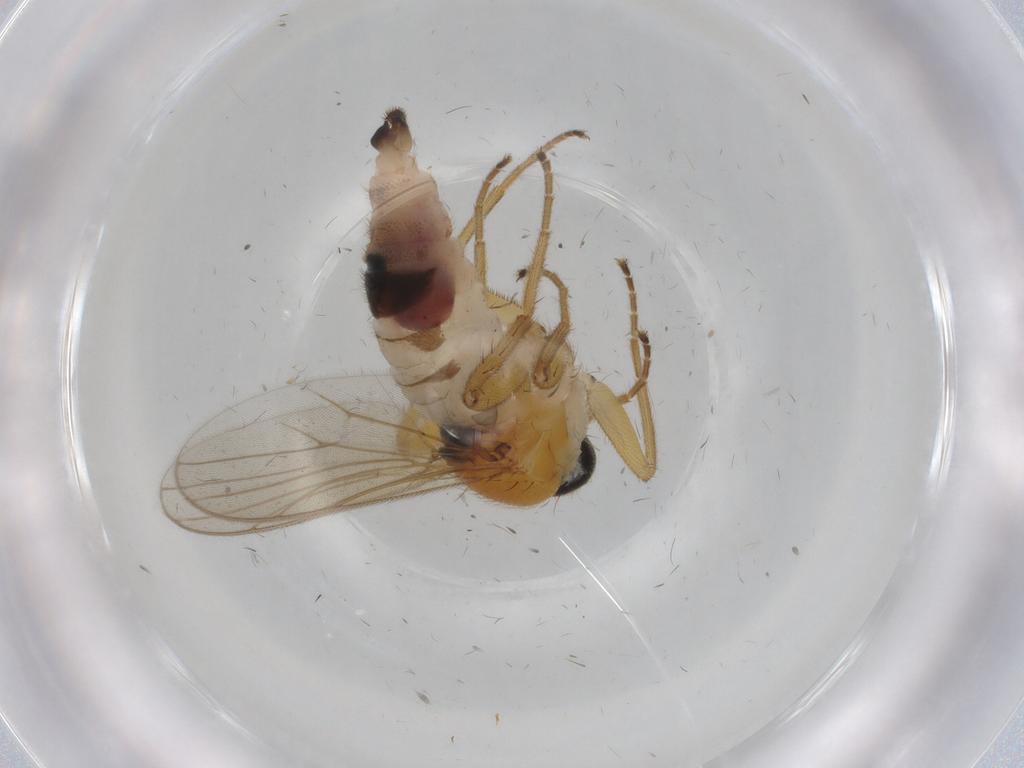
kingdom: Animalia
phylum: Arthropoda
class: Insecta
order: Diptera
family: Hybotidae
